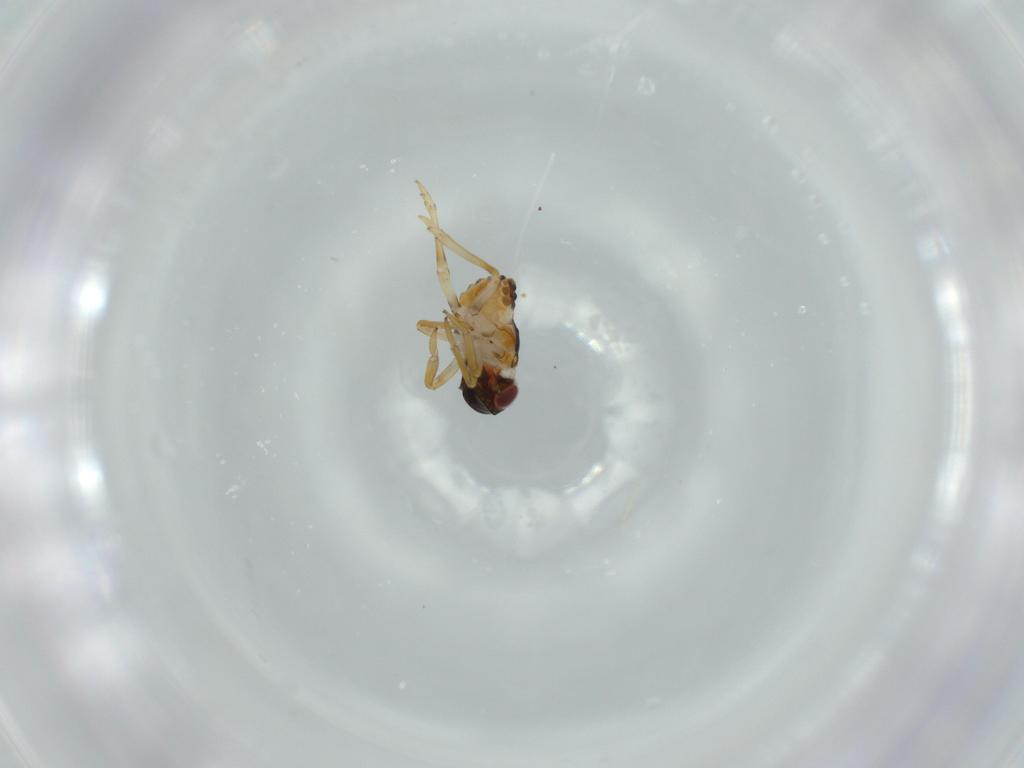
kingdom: Animalia
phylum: Arthropoda
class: Insecta
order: Hemiptera
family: Issidae
